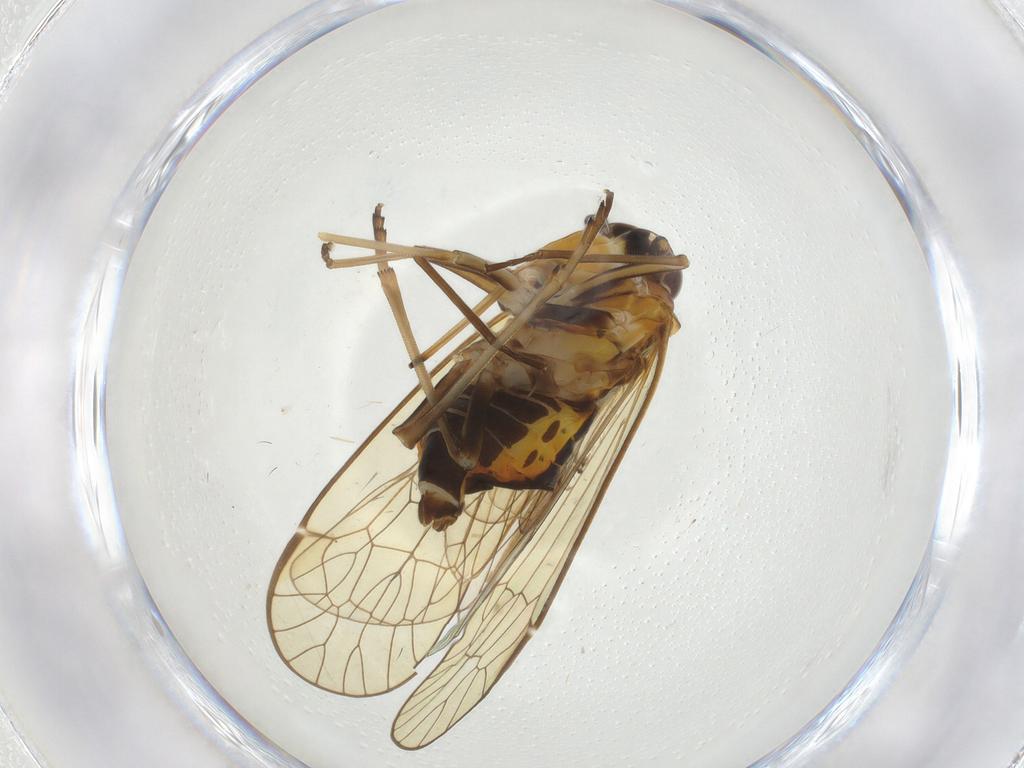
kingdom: Animalia
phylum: Arthropoda
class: Insecta
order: Hemiptera
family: Kinnaridae
